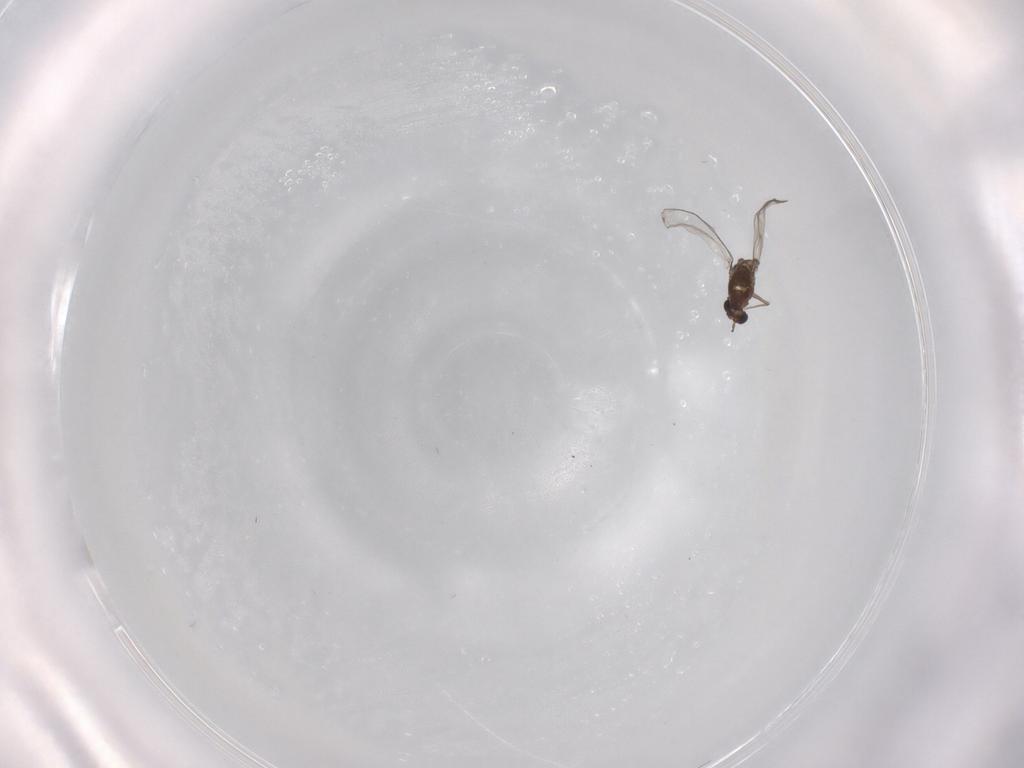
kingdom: Animalia
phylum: Arthropoda
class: Insecta
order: Diptera
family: Chironomidae
